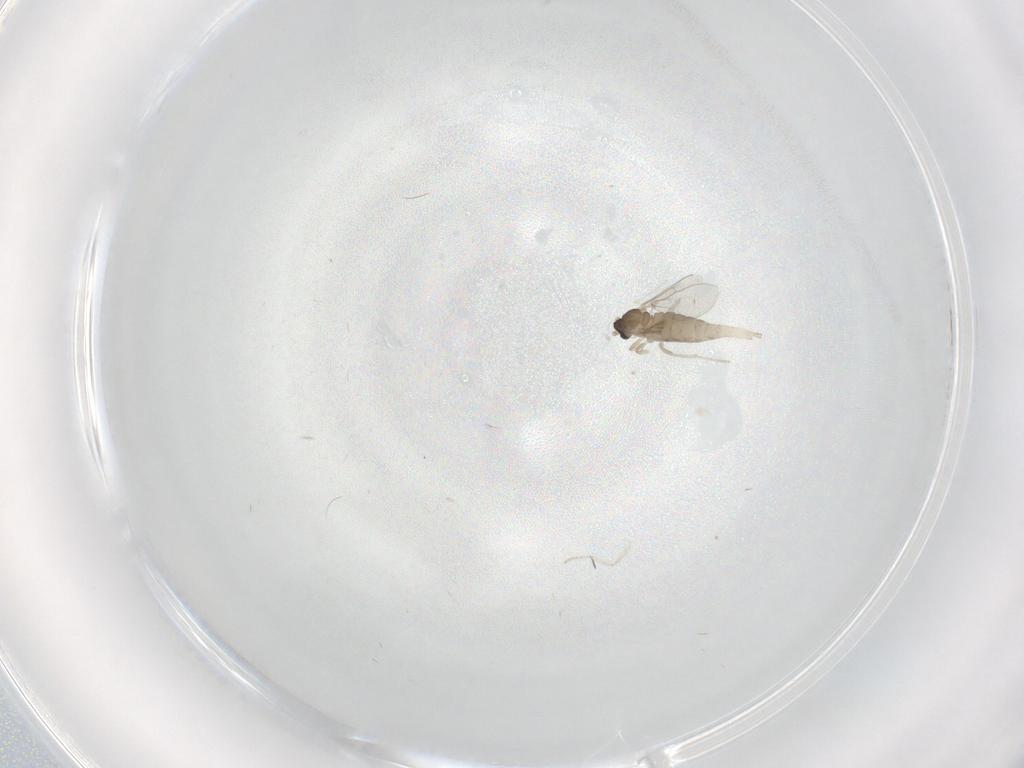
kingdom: Animalia
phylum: Arthropoda
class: Insecta
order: Diptera
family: Cecidomyiidae
